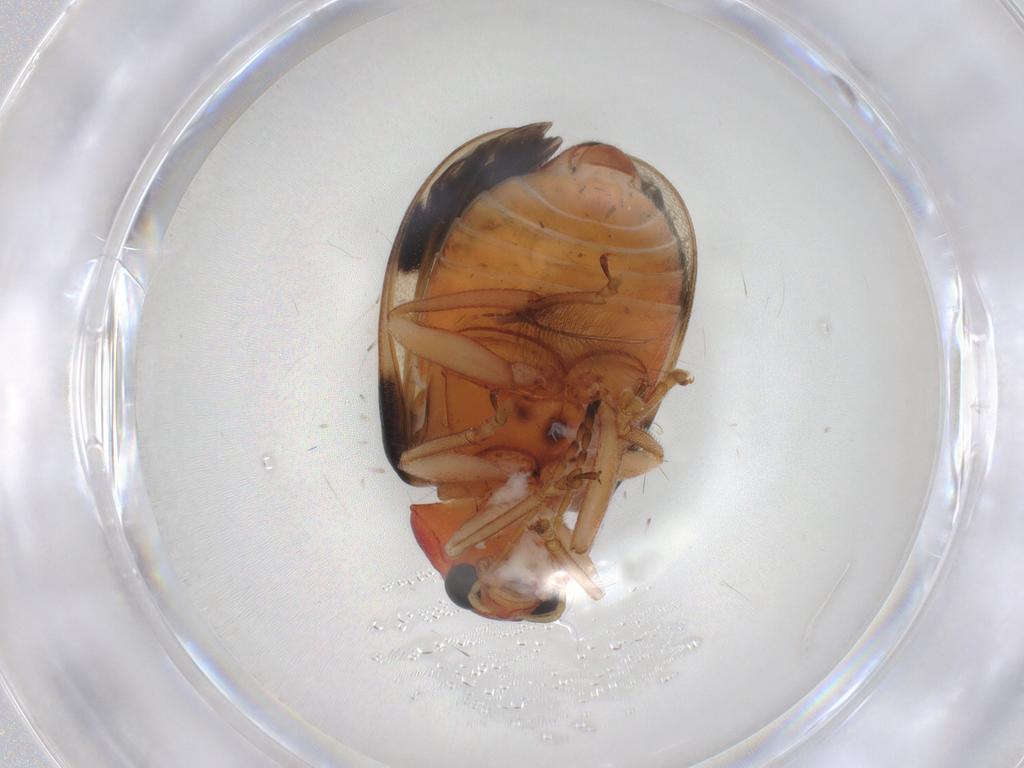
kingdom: Animalia
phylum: Arthropoda
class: Insecta
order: Coleoptera
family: Chrysomelidae
